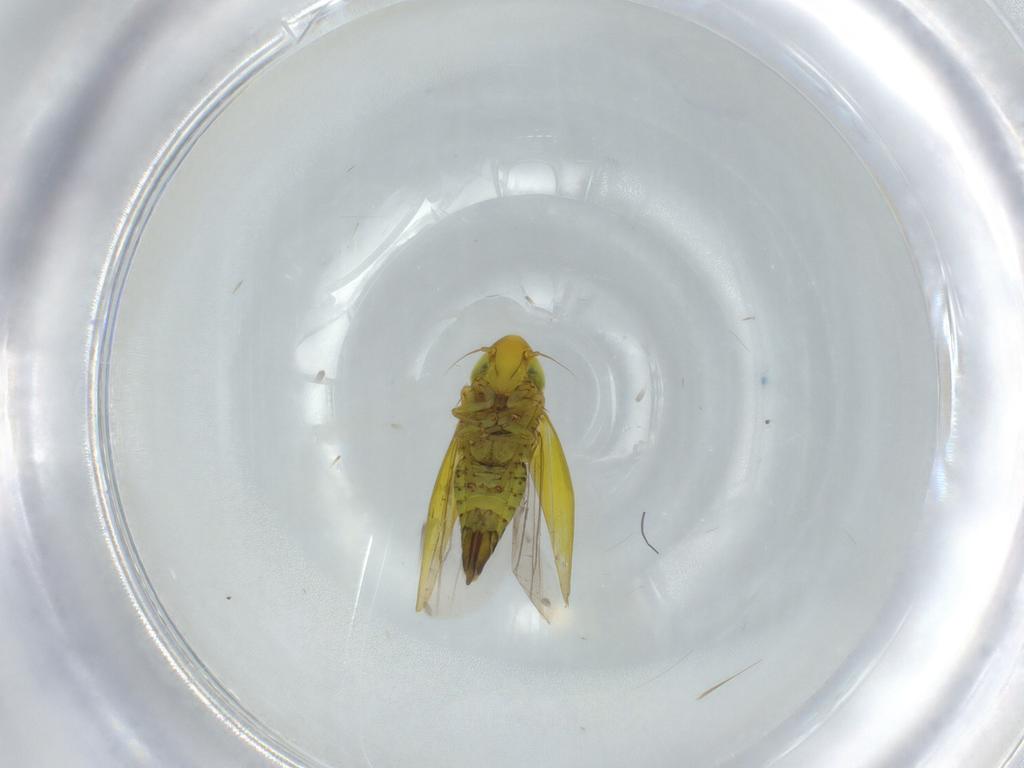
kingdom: Animalia
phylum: Arthropoda
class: Insecta
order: Hemiptera
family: Cicadellidae
